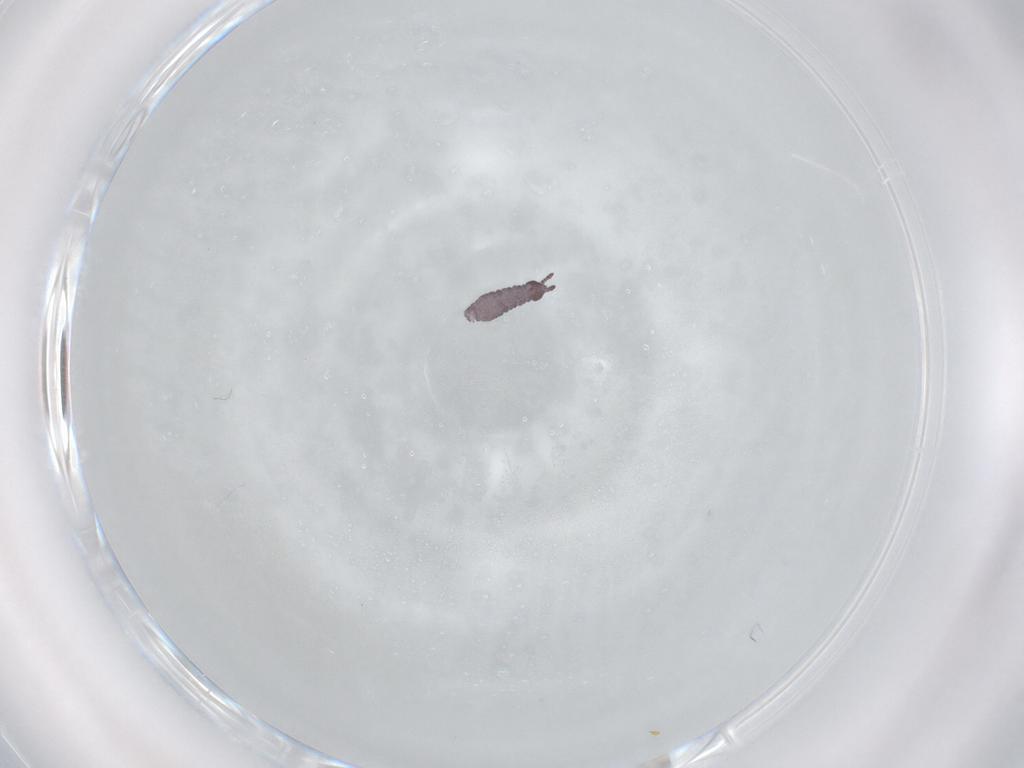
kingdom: Animalia
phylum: Arthropoda
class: Collembola
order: Poduromorpha
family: Hypogastruridae
